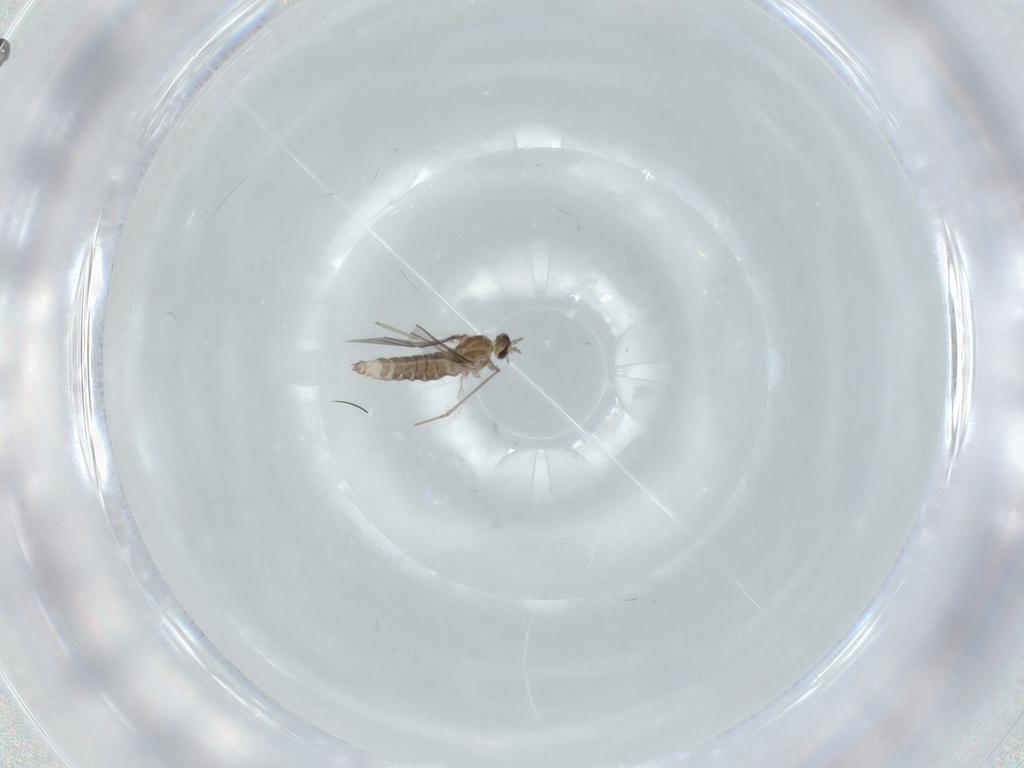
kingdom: Animalia
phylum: Arthropoda
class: Insecta
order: Diptera
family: Cecidomyiidae
